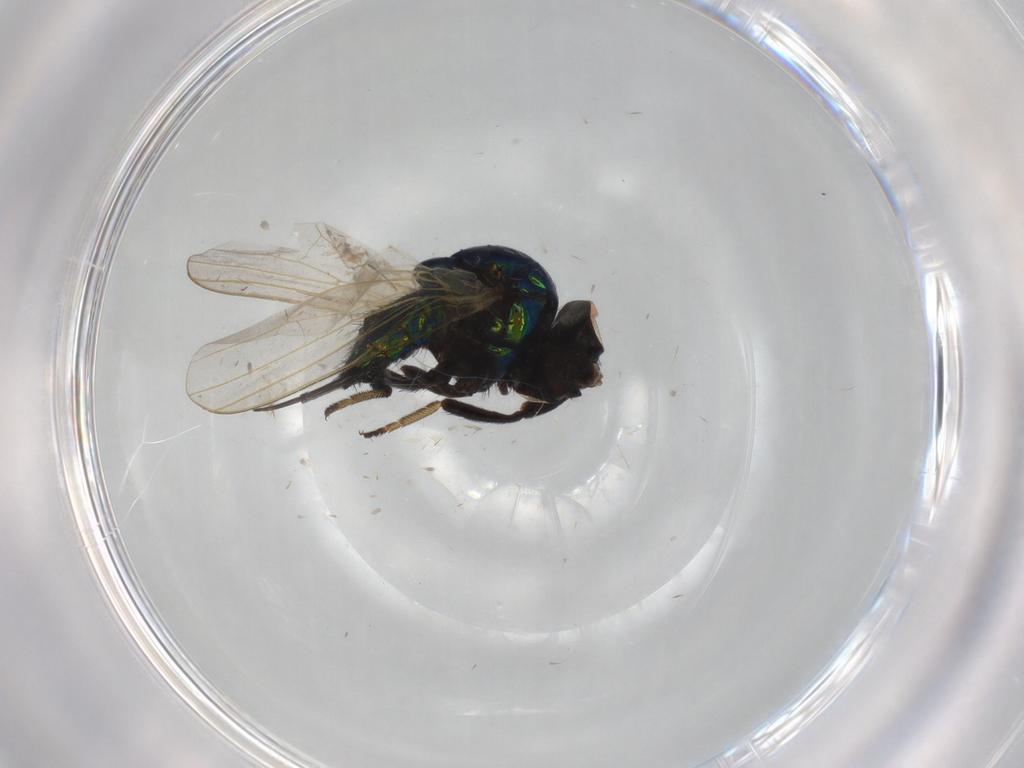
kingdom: Animalia
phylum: Arthropoda
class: Insecta
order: Diptera
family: Lonchaeidae
